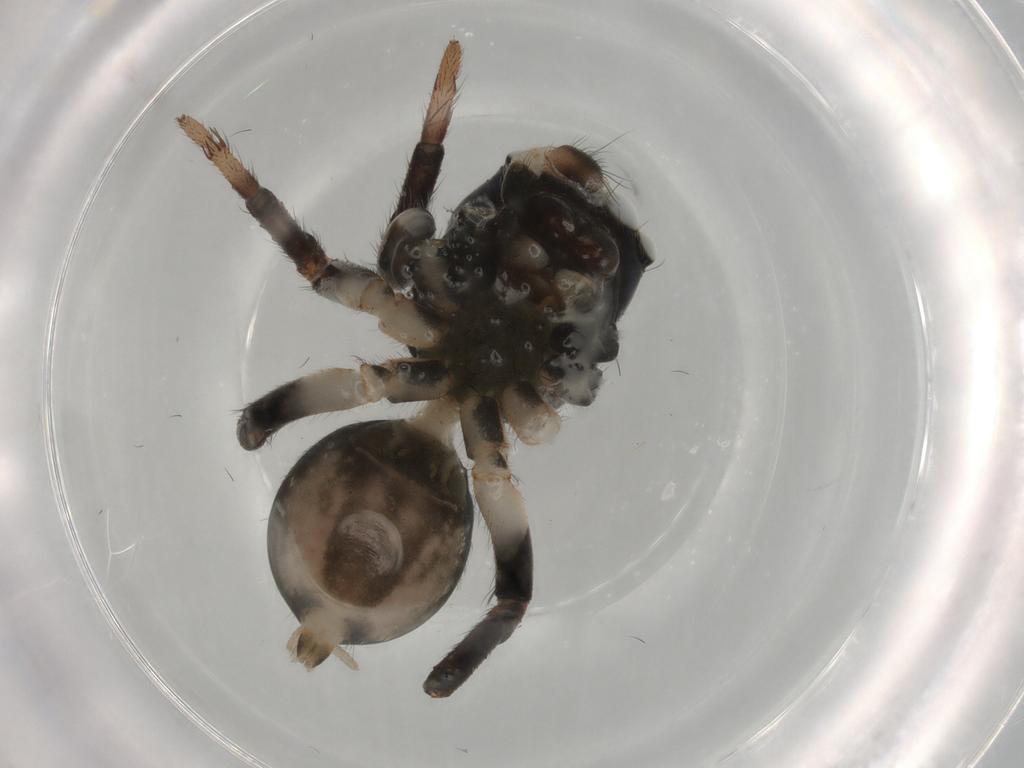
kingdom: Animalia
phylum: Arthropoda
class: Arachnida
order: Araneae
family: Salticidae
